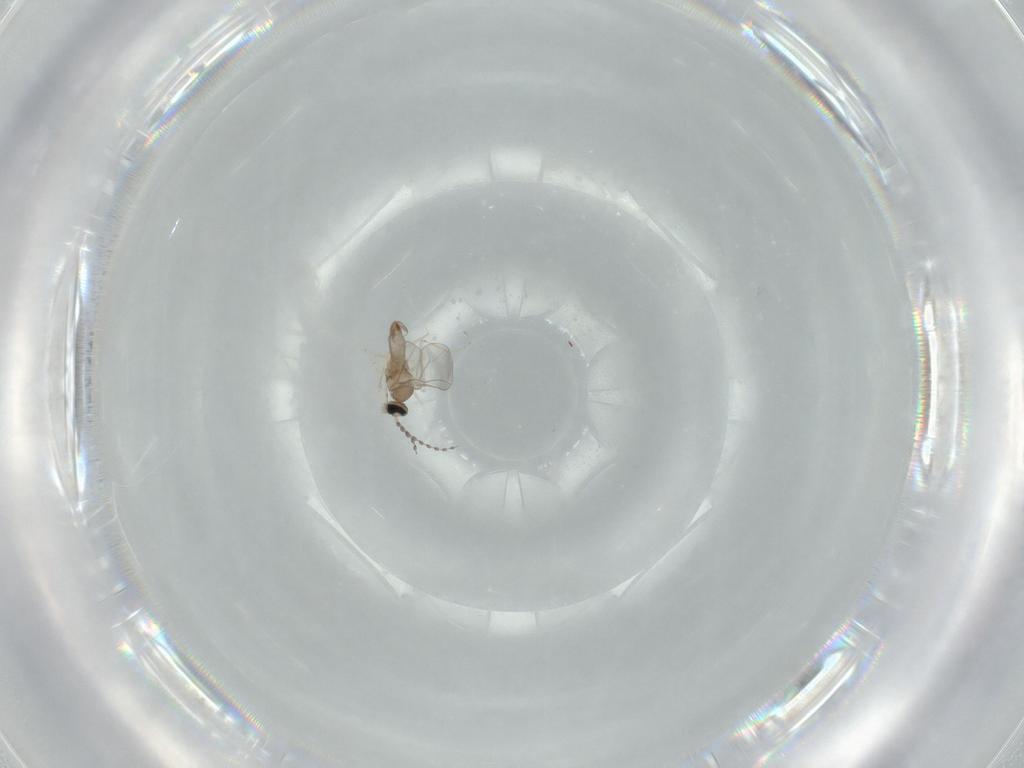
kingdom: Animalia
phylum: Arthropoda
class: Insecta
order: Diptera
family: Cecidomyiidae
